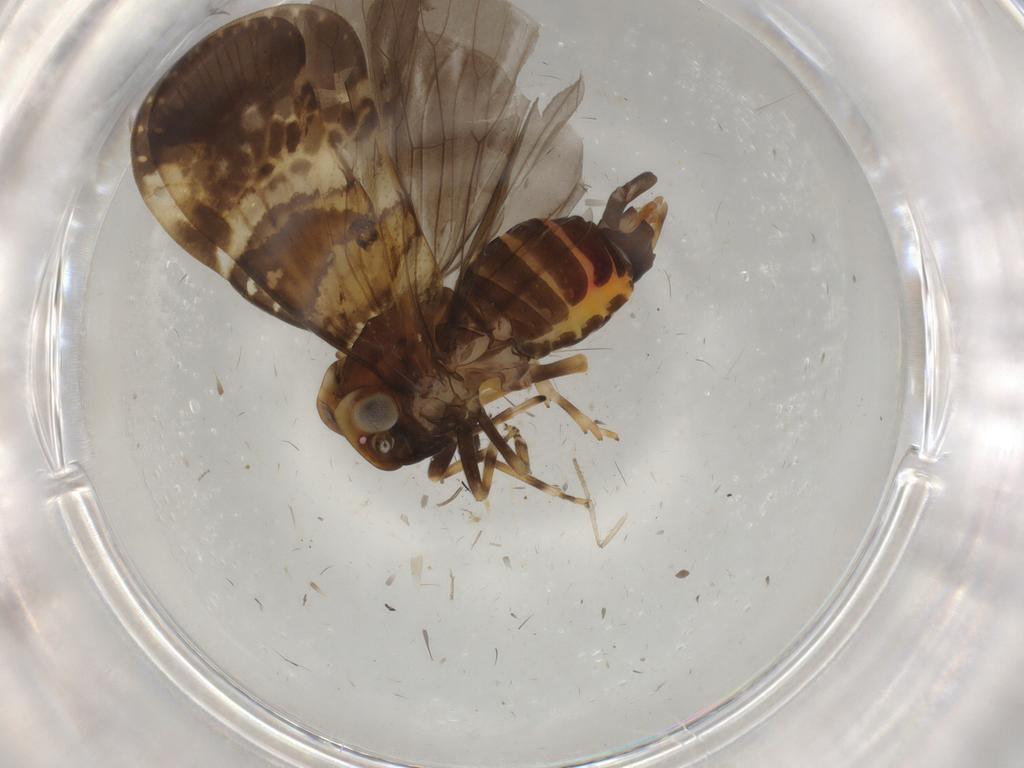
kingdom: Animalia
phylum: Arthropoda
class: Insecta
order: Hemiptera
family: Cixiidae
